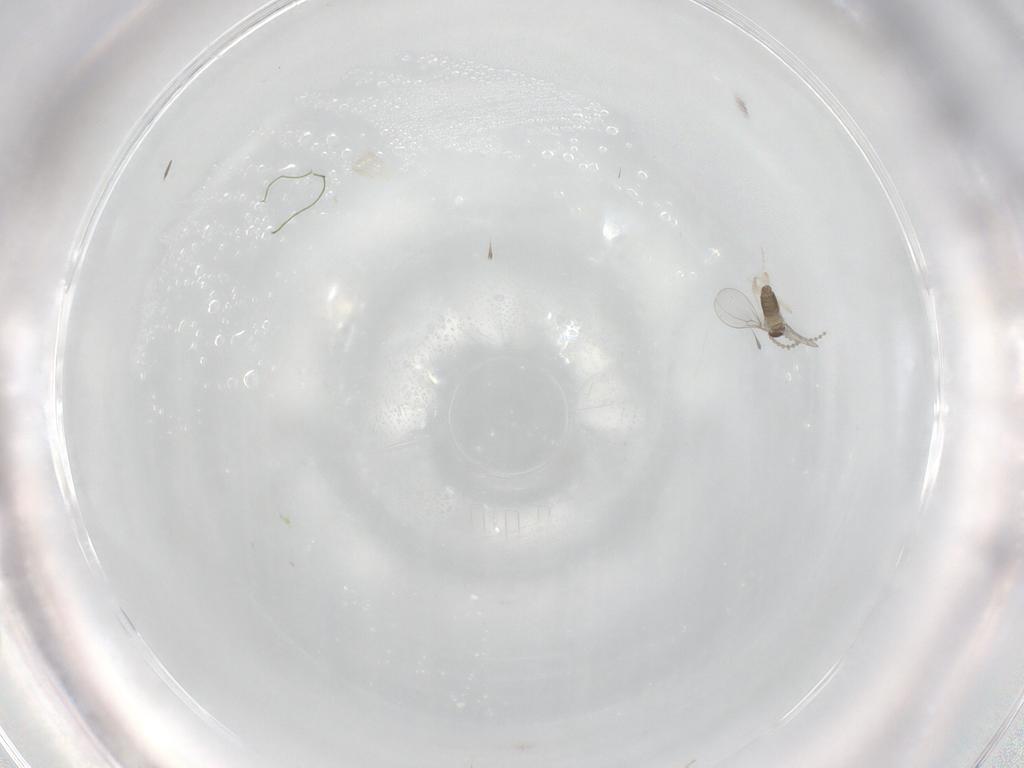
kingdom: Animalia
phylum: Arthropoda
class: Insecta
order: Diptera
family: Cecidomyiidae
